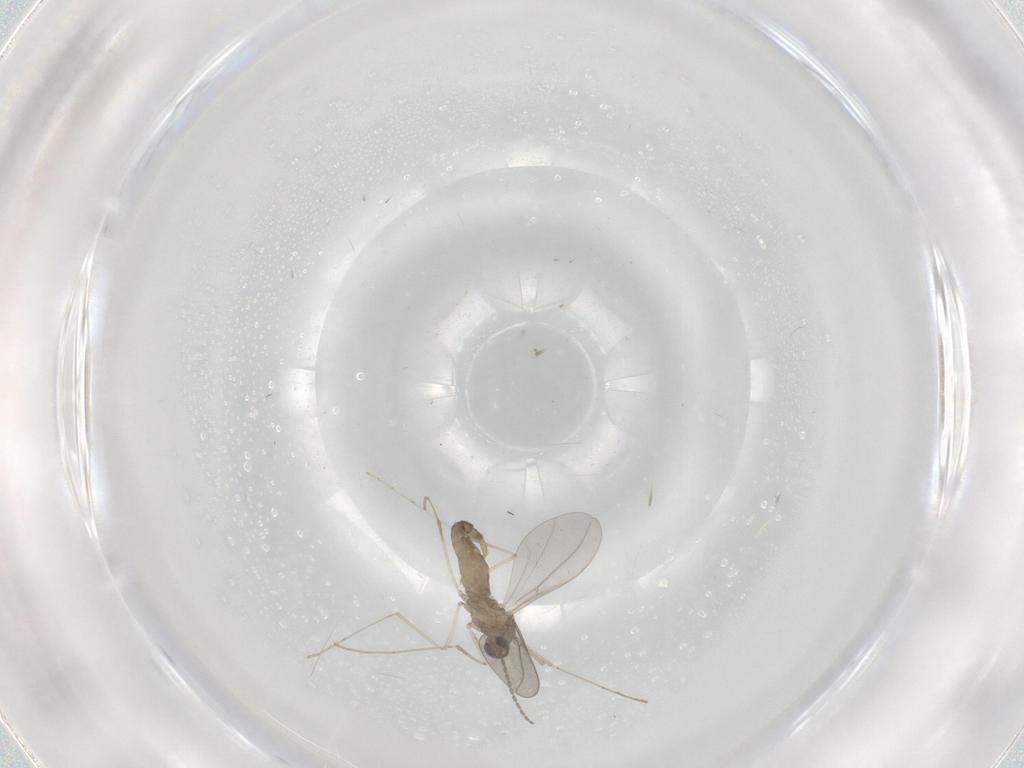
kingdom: Animalia
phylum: Arthropoda
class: Insecta
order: Diptera
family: Cecidomyiidae
